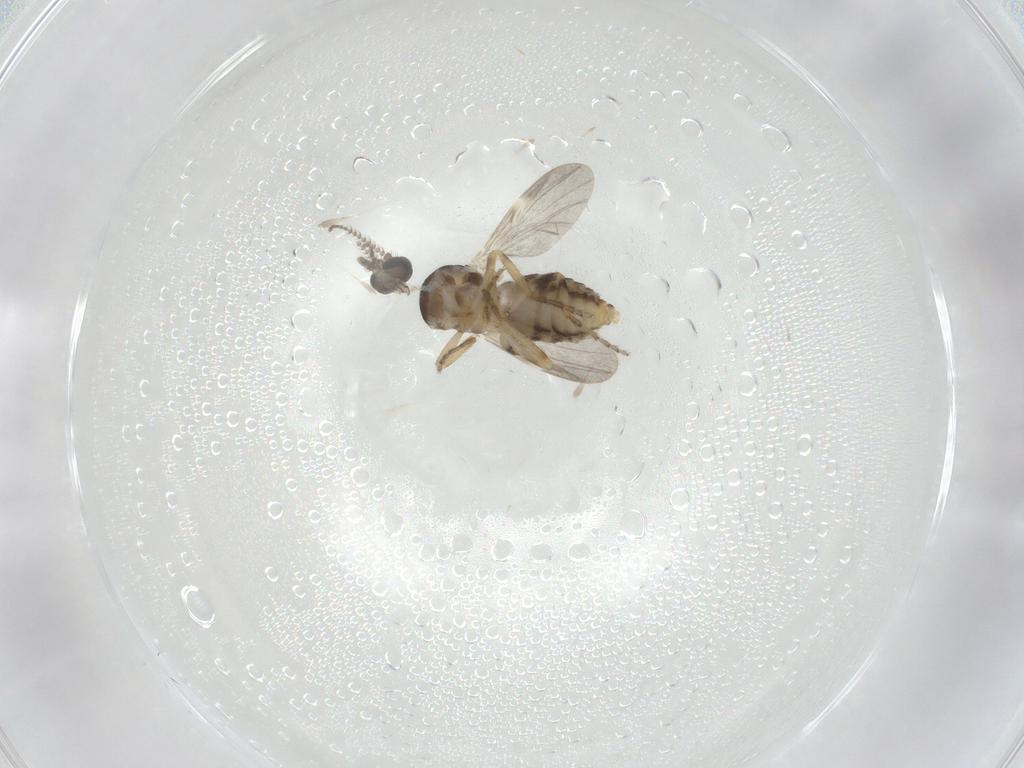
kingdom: Animalia
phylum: Arthropoda
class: Insecta
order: Diptera
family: Ceratopogonidae
